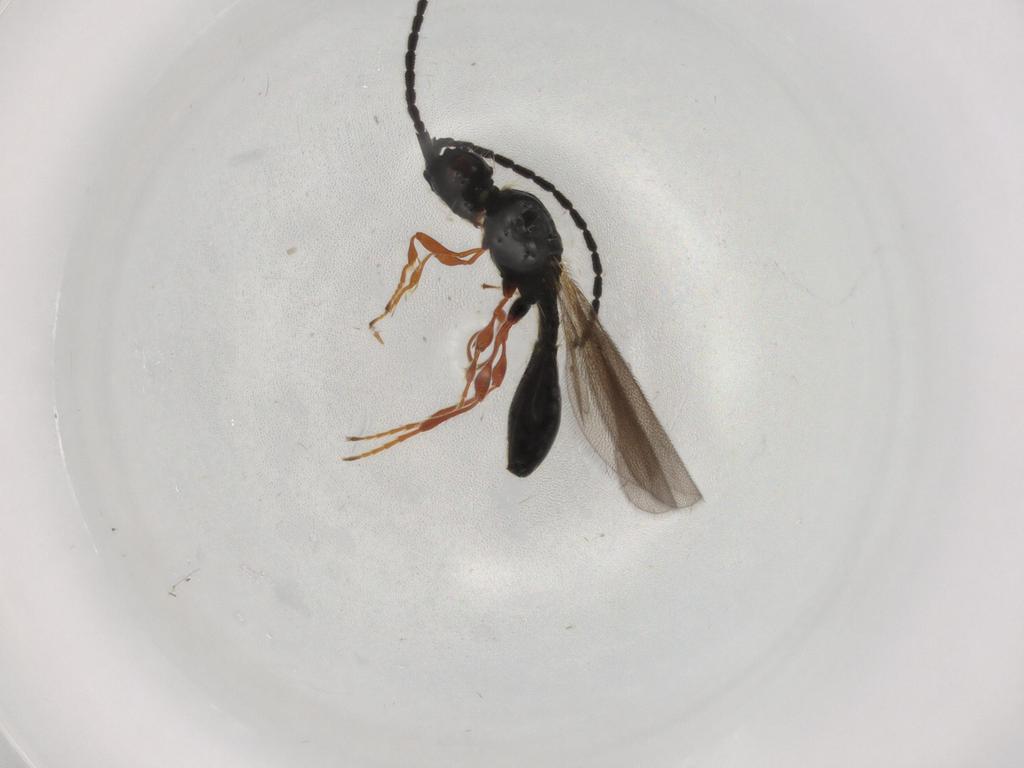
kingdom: Animalia
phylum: Arthropoda
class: Insecta
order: Hymenoptera
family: Diapriidae
